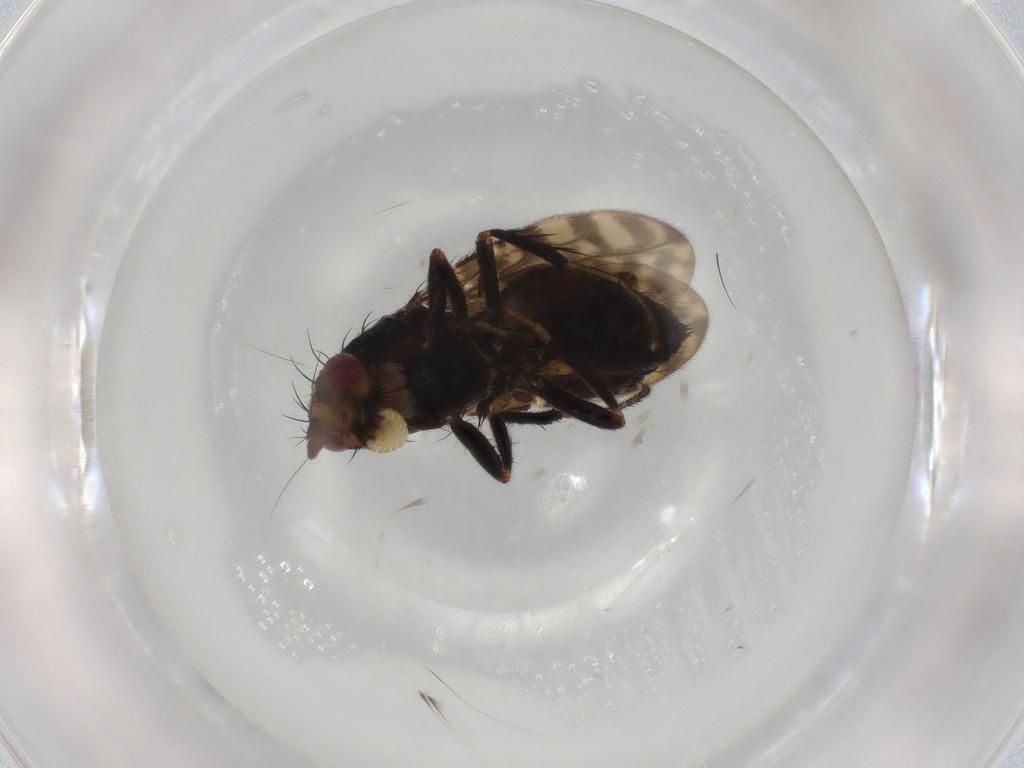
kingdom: Animalia
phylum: Arthropoda
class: Insecta
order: Diptera
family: Sphaeroceridae
